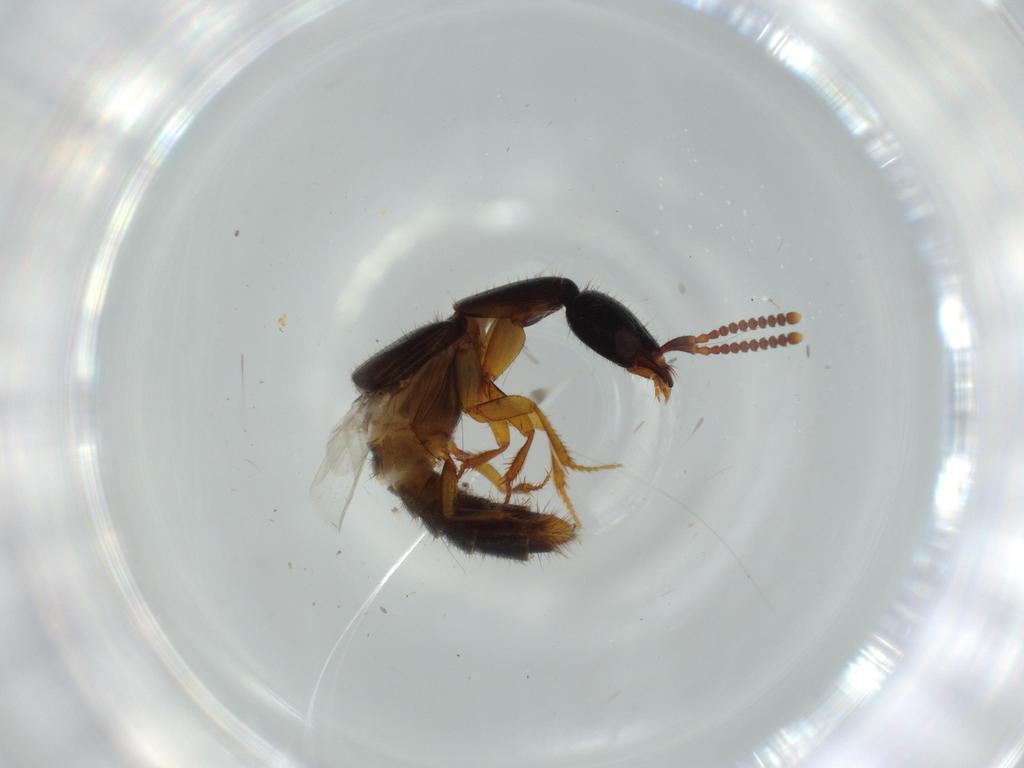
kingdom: Animalia
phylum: Arthropoda
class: Insecta
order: Coleoptera
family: Staphylinidae
